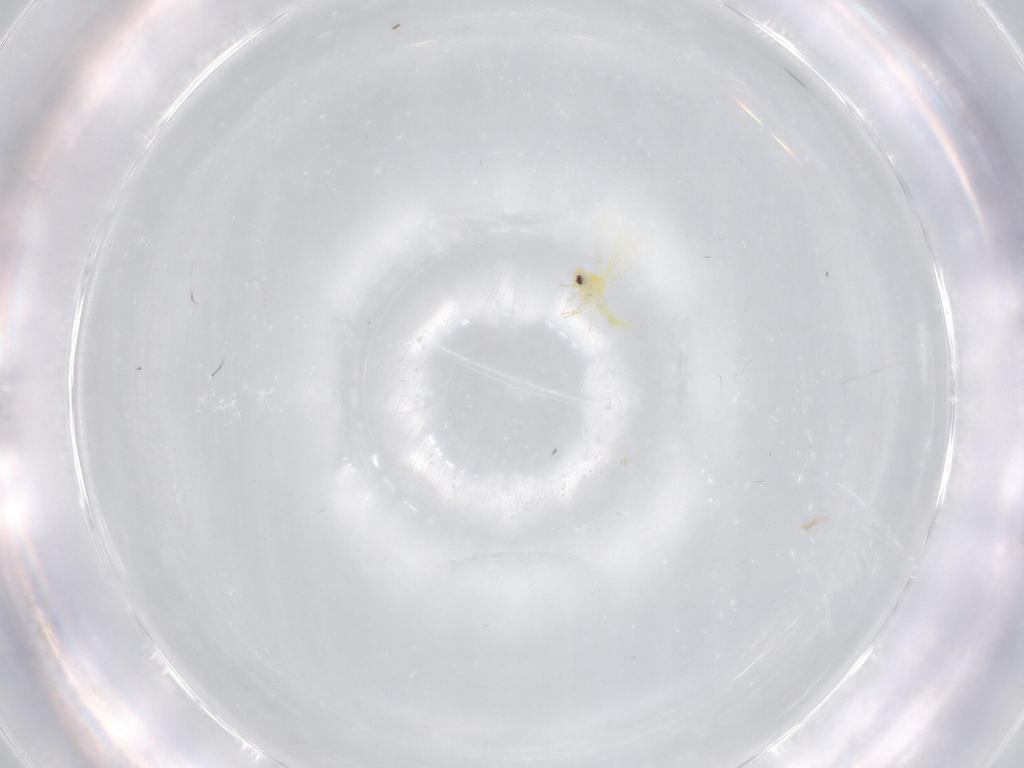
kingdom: Animalia
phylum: Arthropoda
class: Insecta
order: Hemiptera
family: Aleyrodidae
